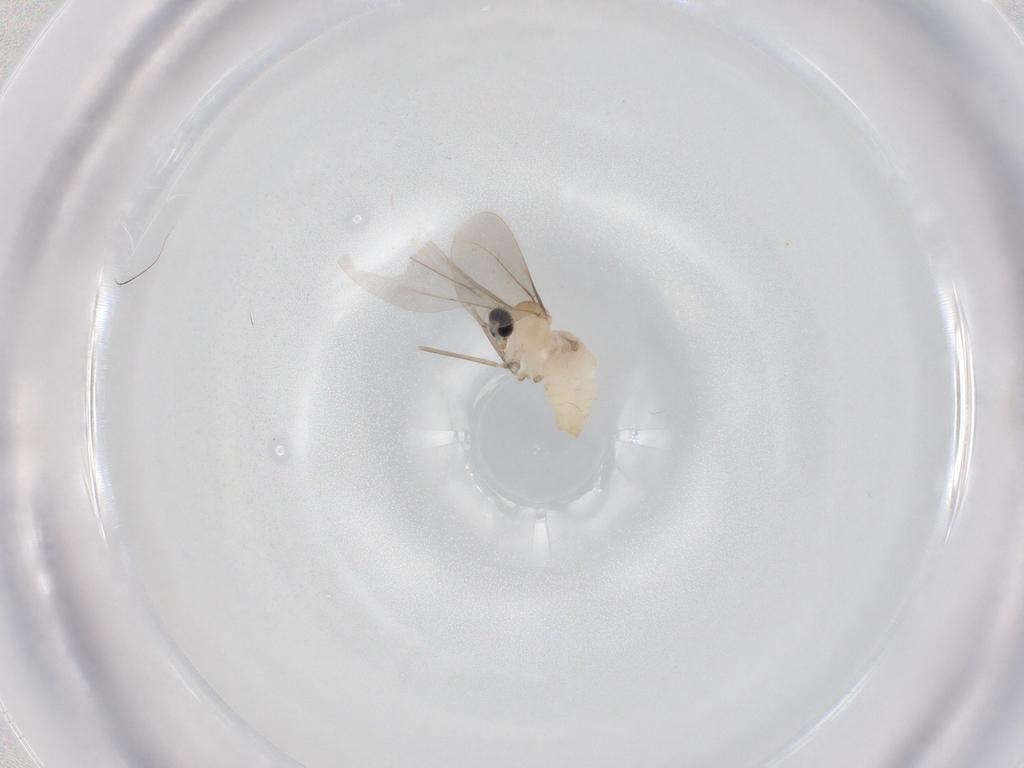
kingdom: Animalia
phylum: Arthropoda
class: Insecta
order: Diptera
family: Cecidomyiidae
